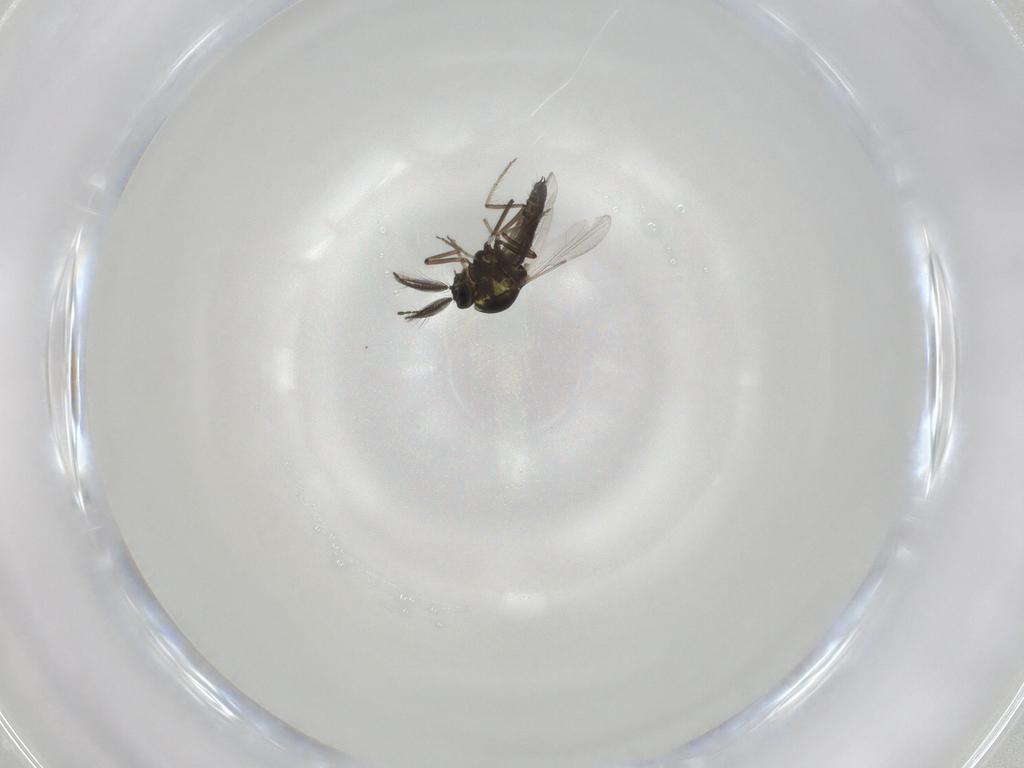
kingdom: Animalia
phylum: Arthropoda
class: Insecta
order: Diptera
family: Ceratopogonidae
